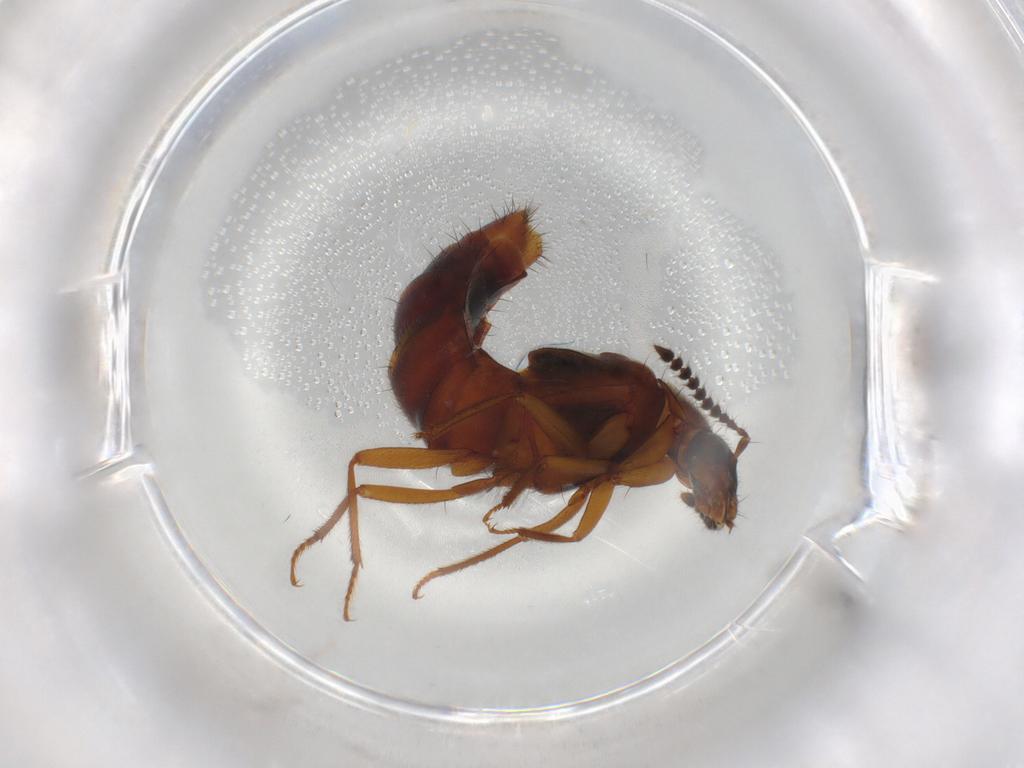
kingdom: Animalia
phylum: Arthropoda
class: Insecta
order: Coleoptera
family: Staphylinidae
